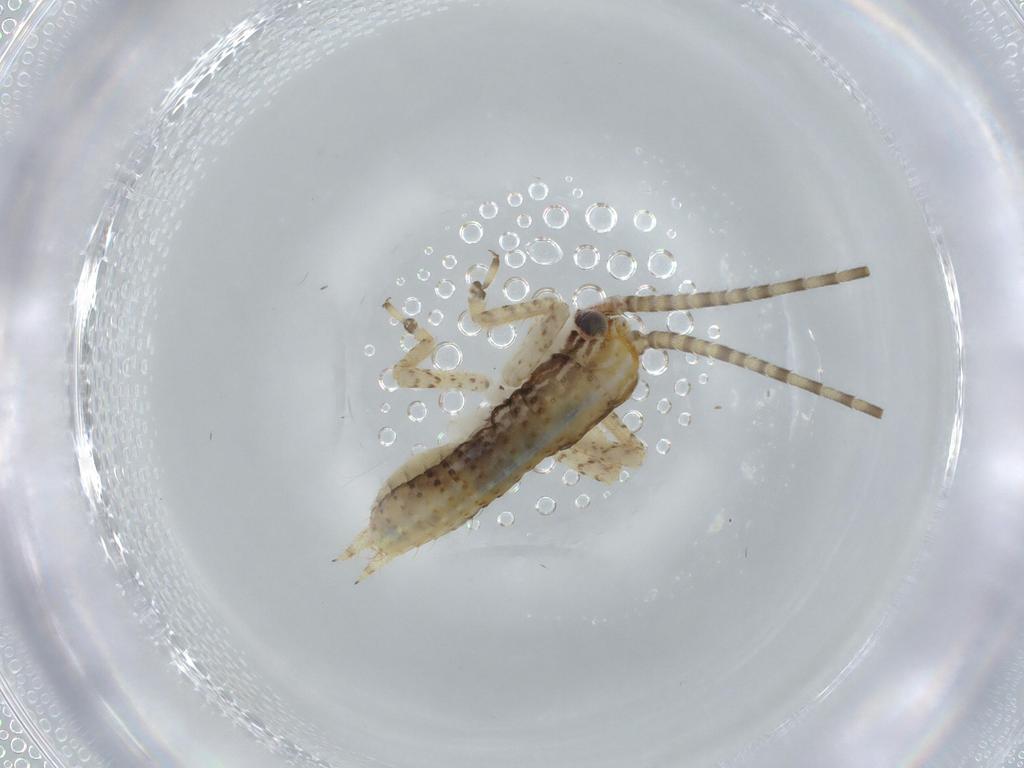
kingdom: Animalia
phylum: Arthropoda
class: Insecta
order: Orthoptera
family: Gryllidae
